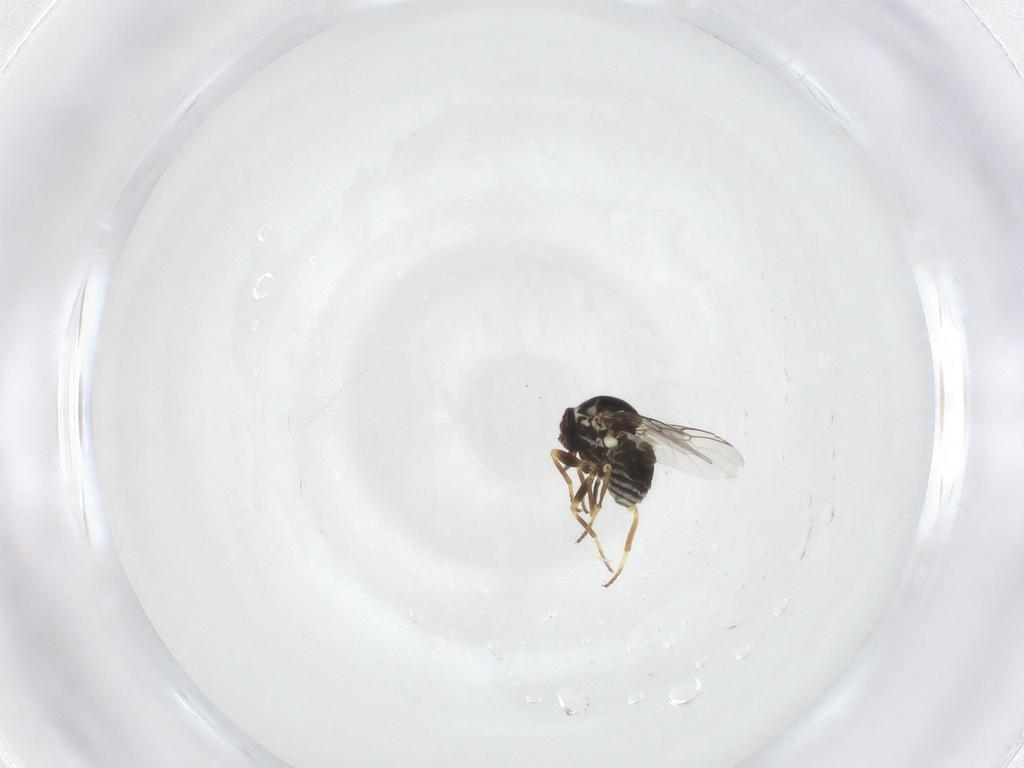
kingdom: Animalia
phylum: Arthropoda
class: Insecta
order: Diptera
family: Mythicomyiidae
